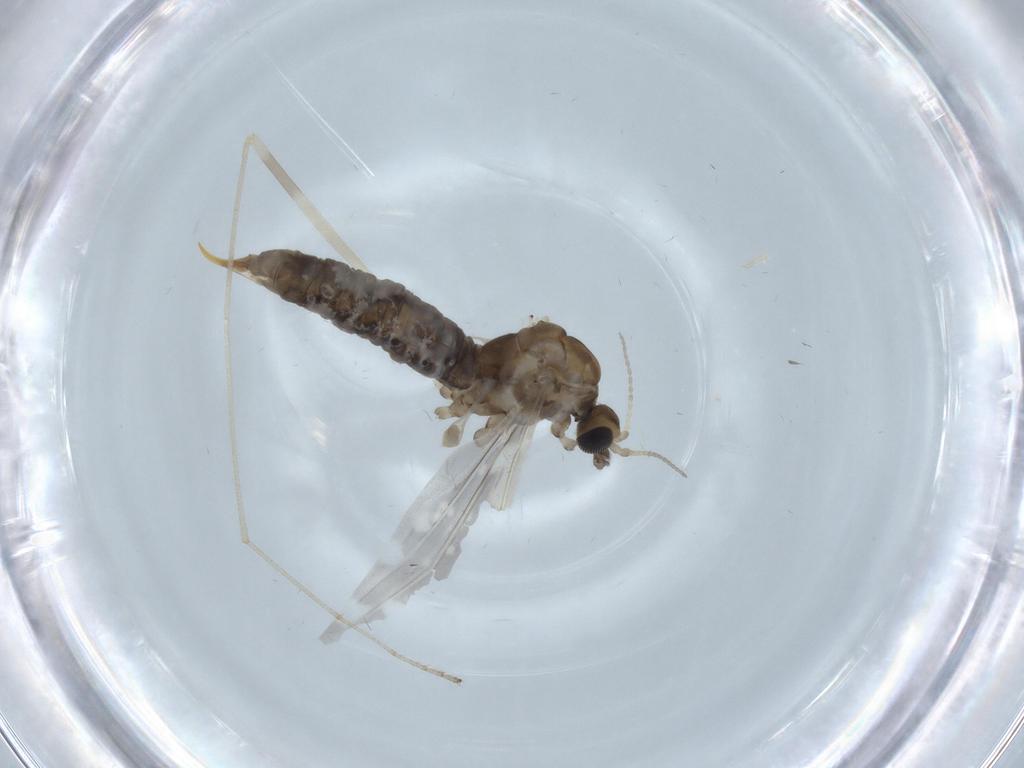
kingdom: Animalia
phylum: Arthropoda
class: Insecta
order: Diptera
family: Limoniidae
